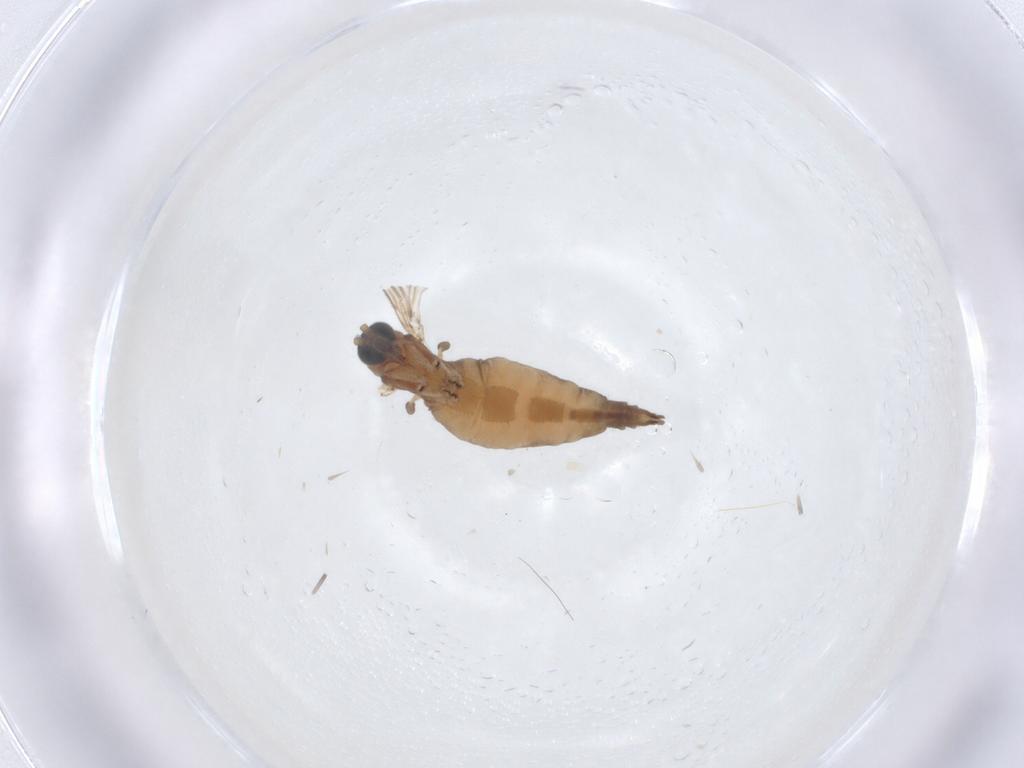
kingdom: Animalia
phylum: Arthropoda
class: Insecta
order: Diptera
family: Sciaridae
